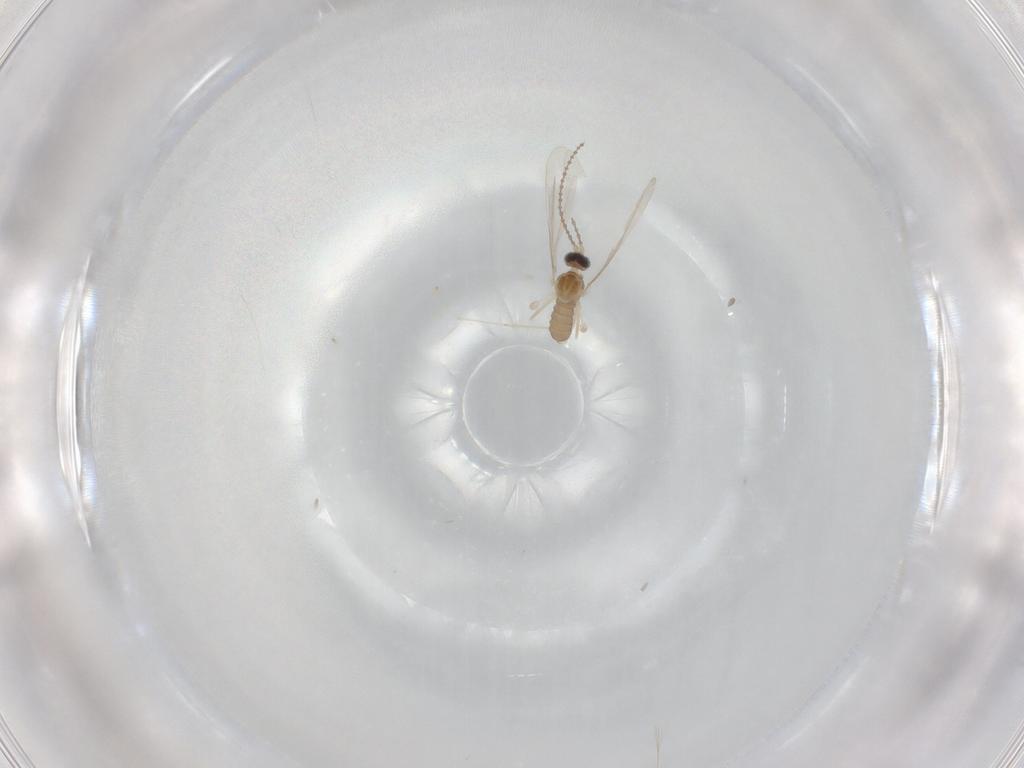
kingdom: Animalia
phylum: Arthropoda
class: Insecta
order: Diptera
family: Cecidomyiidae
